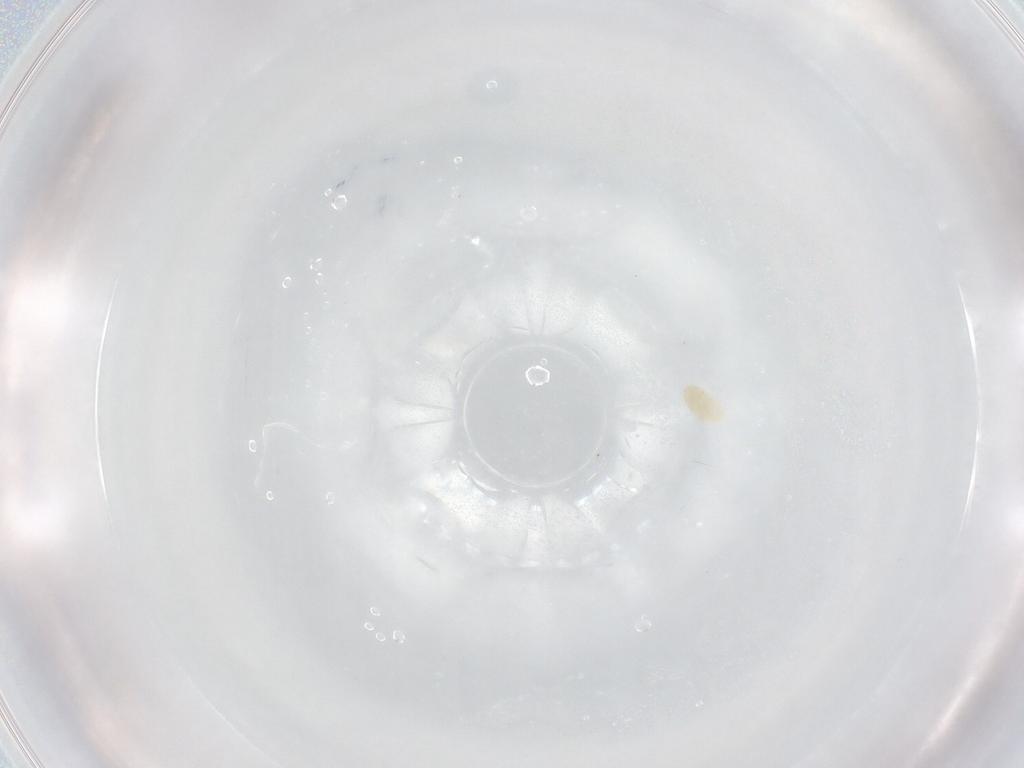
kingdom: Animalia
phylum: Arthropoda
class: Arachnida
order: Trombidiformes
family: Eupodidae
